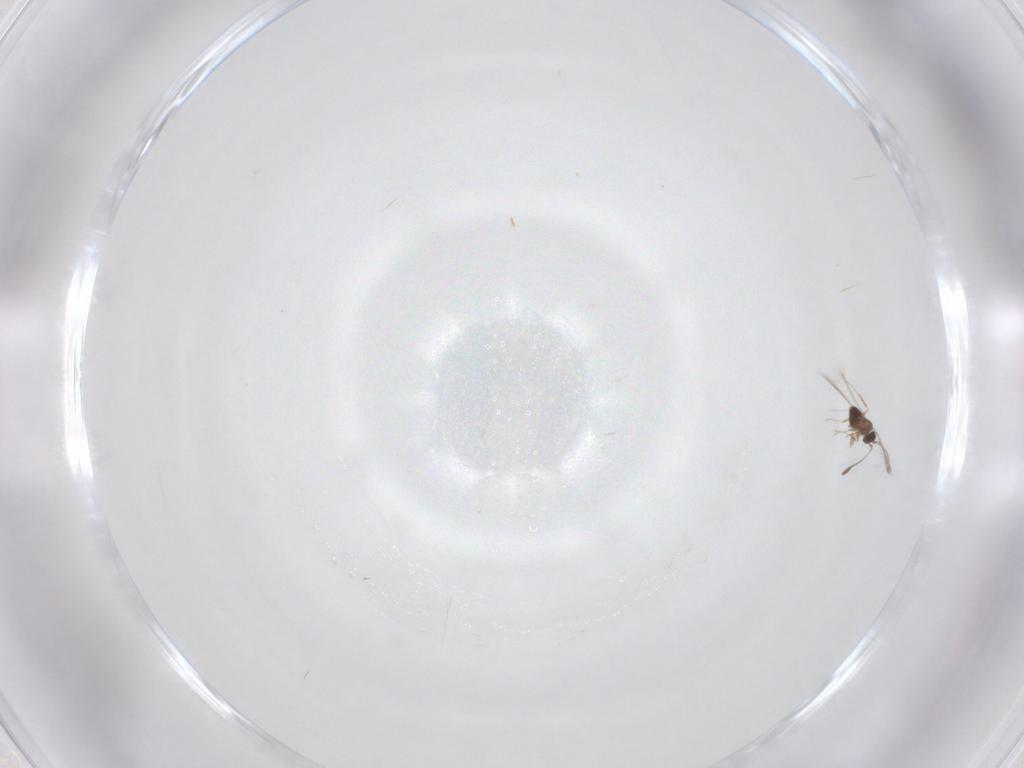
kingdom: Animalia
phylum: Arthropoda
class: Insecta
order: Hymenoptera
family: Mymaridae
